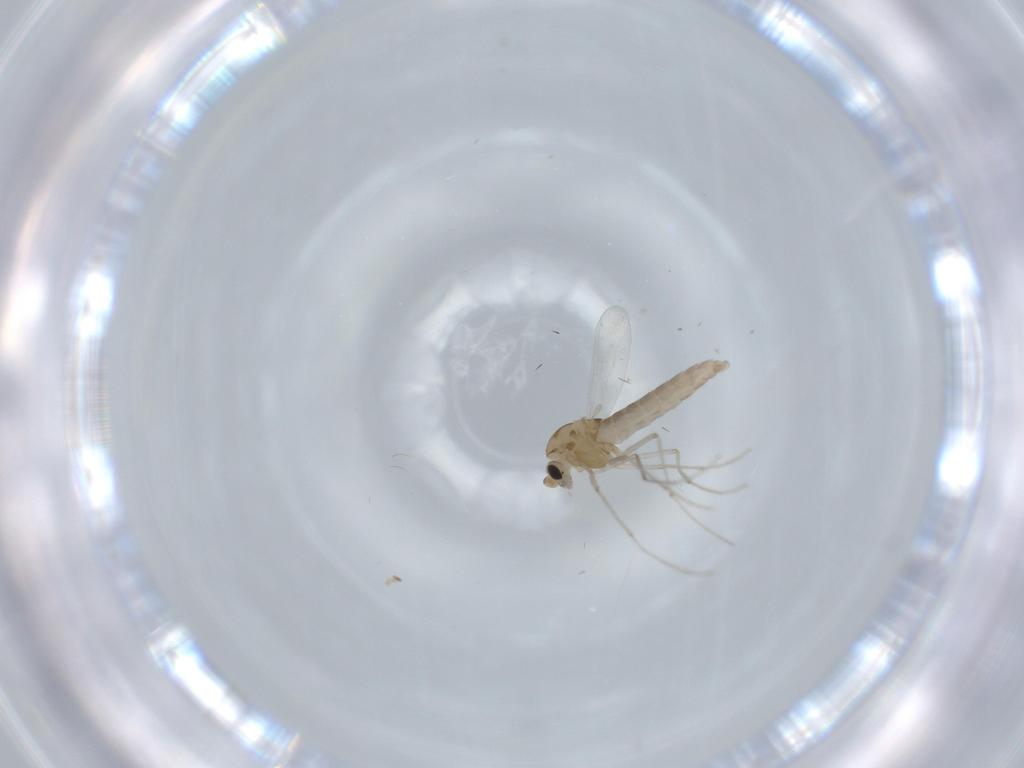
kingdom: Animalia
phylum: Arthropoda
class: Insecta
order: Diptera
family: Chironomidae
